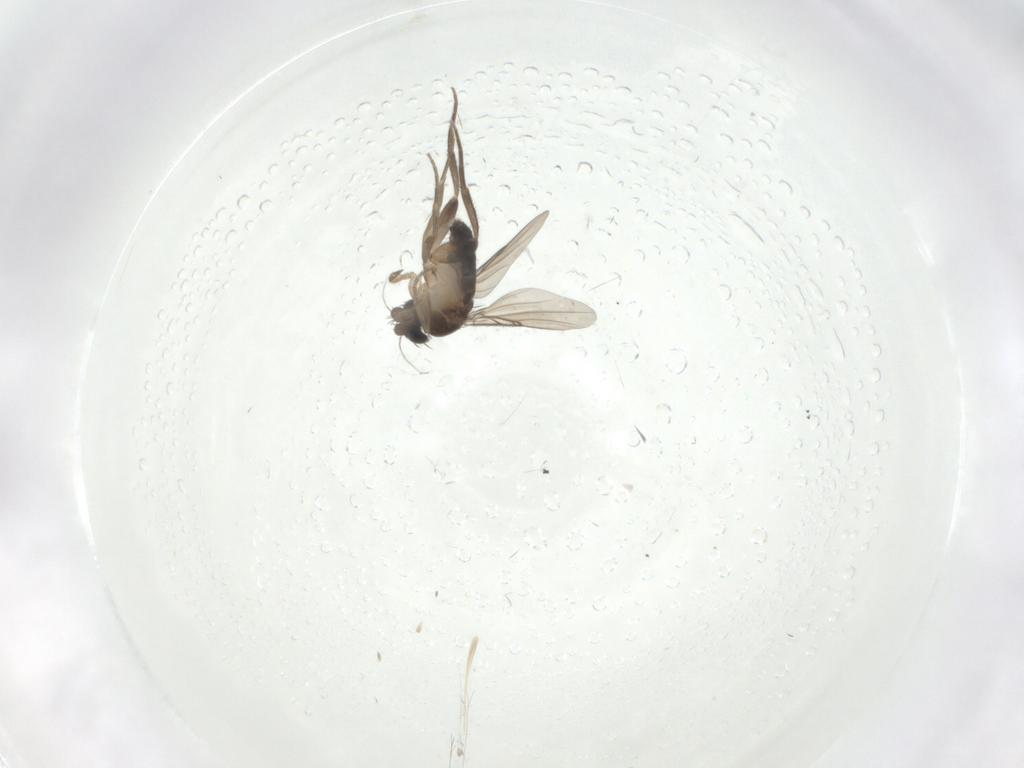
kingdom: Animalia
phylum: Arthropoda
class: Insecta
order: Diptera
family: Phoridae
